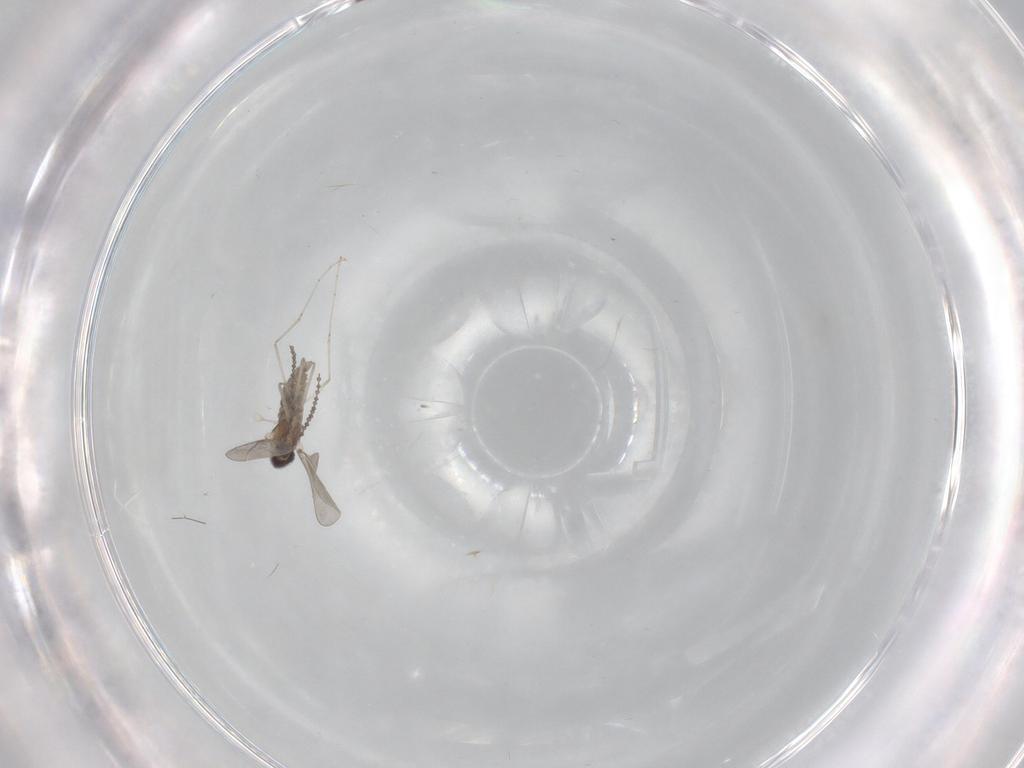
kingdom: Animalia
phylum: Arthropoda
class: Insecta
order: Diptera
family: Cecidomyiidae
